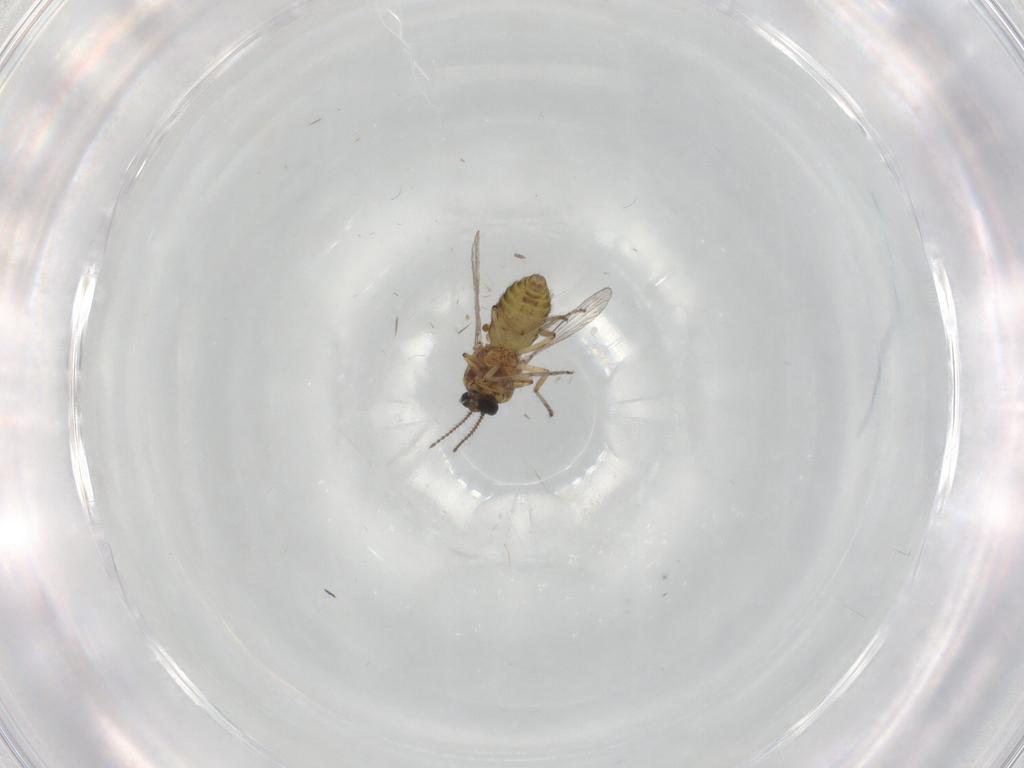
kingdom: Animalia
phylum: Arthropoda
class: Insecta
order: Diptera
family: Ceratopogonidae
